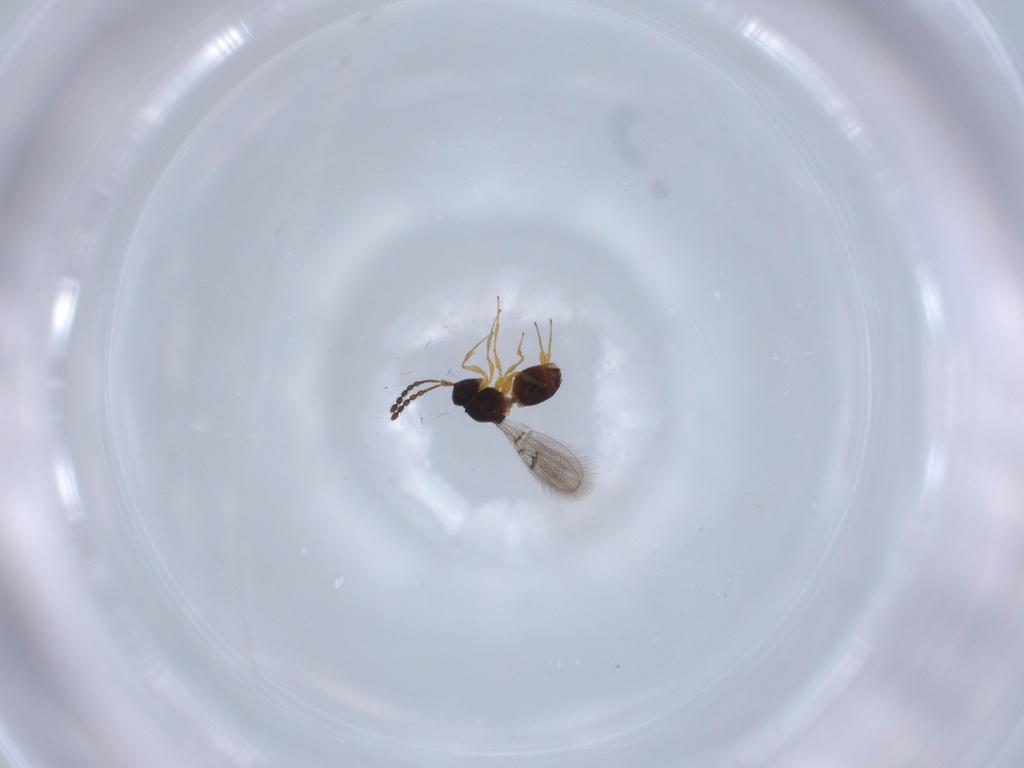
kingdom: Animalia
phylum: Arthropoda
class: Insecta
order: Hymenoptera
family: Figitidae
